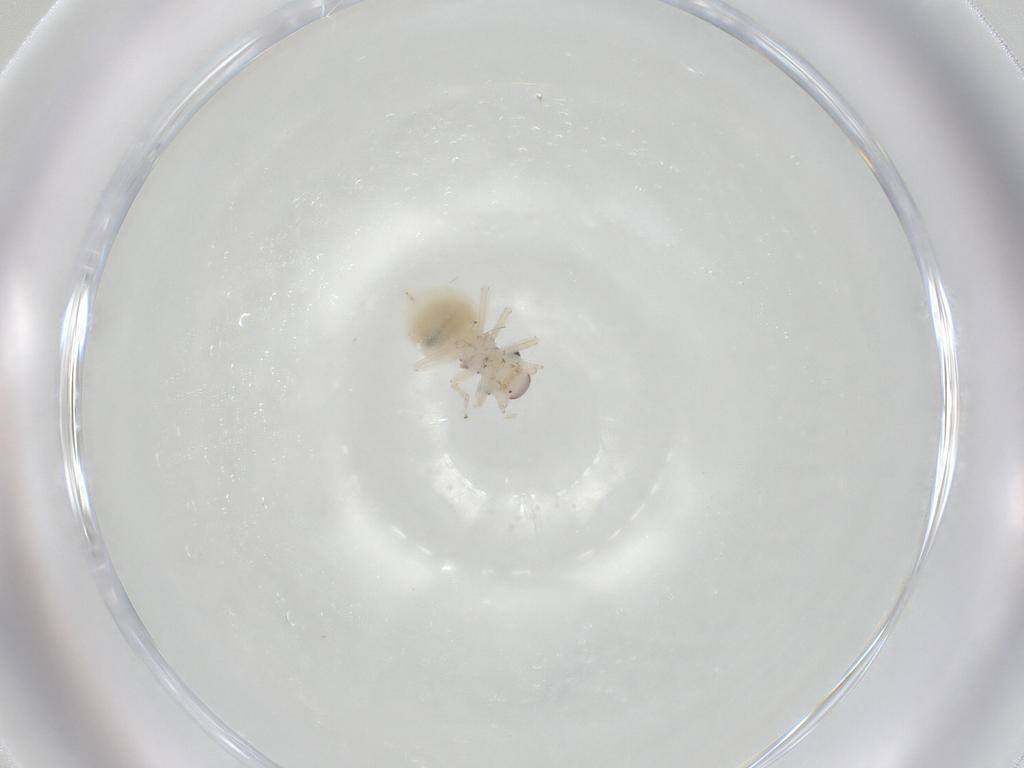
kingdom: Animalia
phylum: Arthropoda
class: Insecta
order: Psocodea
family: Amphipsocidae
